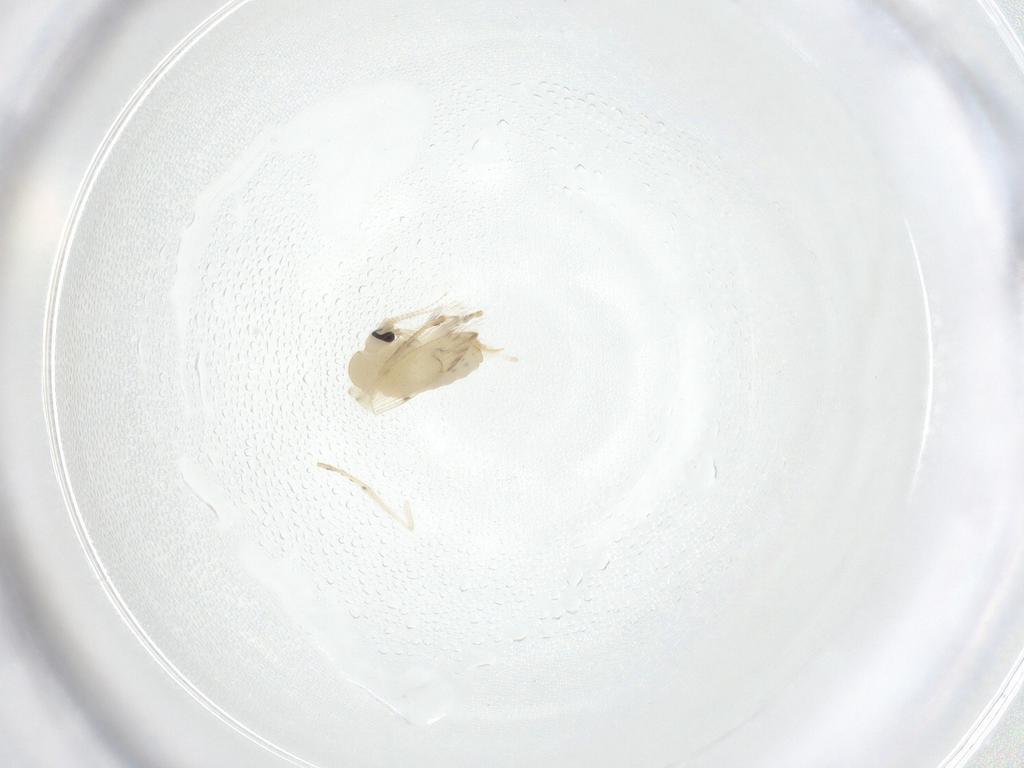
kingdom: Animalia
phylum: Arthropoda
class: Insecta
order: Diptera
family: Psychodidae
